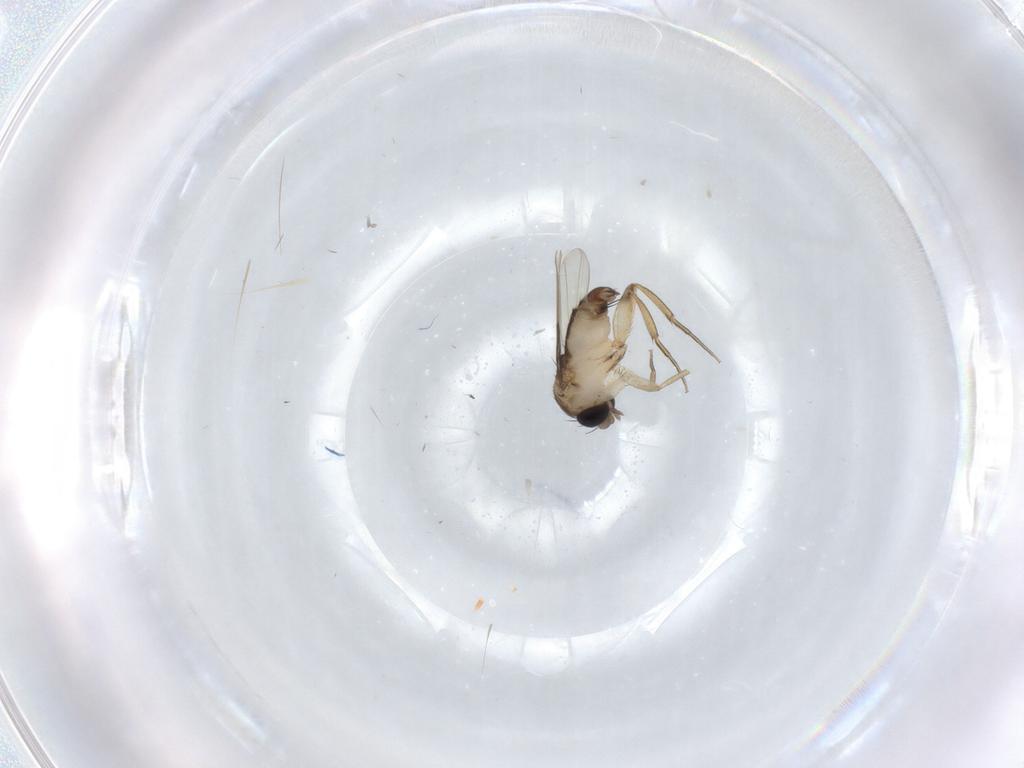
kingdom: Animalia
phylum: Arthropoda
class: Insecta
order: Diptera
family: Phoridae
